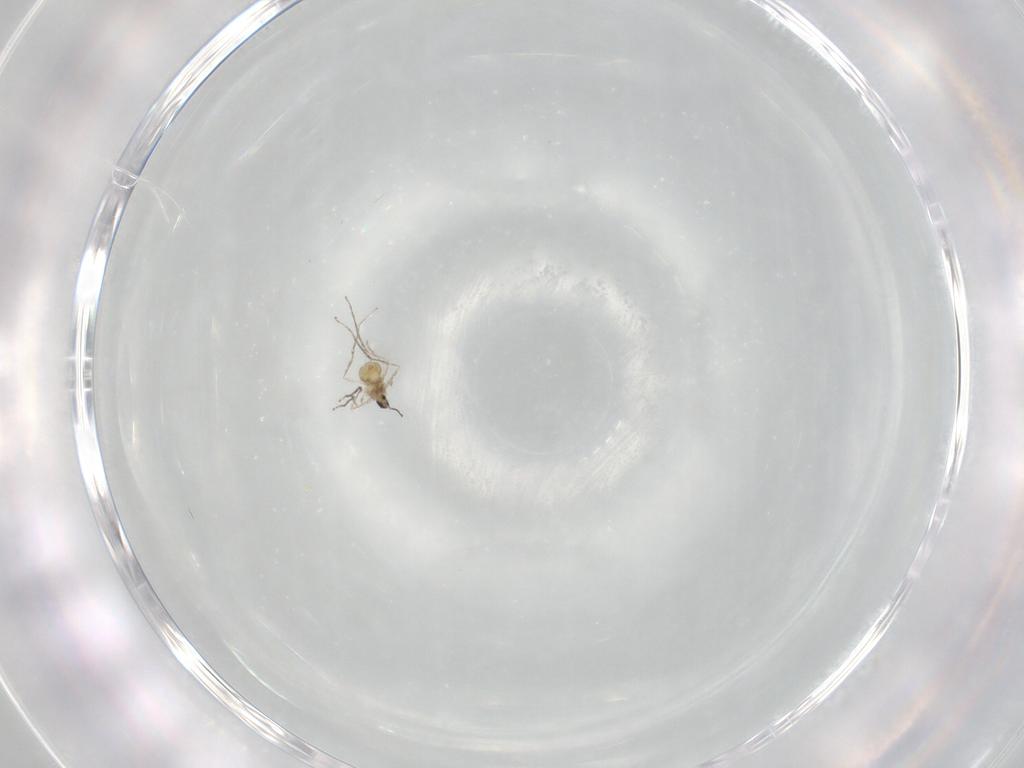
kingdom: Animalia
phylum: Arthropoda
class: Insecta
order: Diptera
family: Cecidomyiidae
